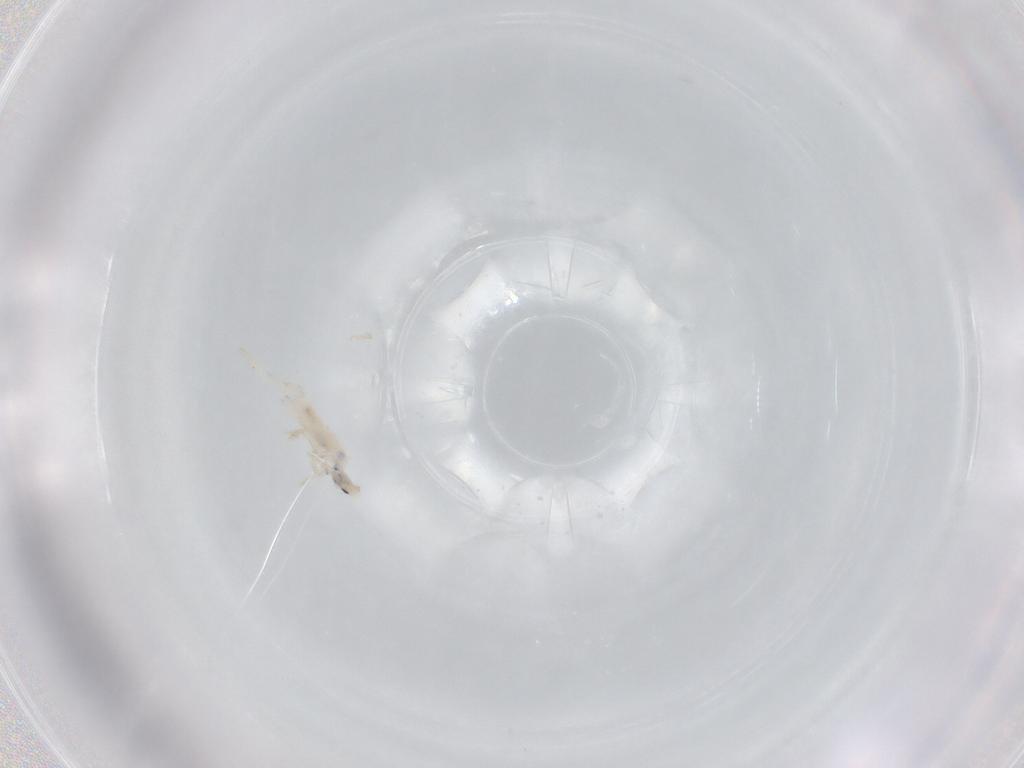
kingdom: Animalia
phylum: Arthropoda
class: Collembola
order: Entomobryomorpha
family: Entomobryidae
